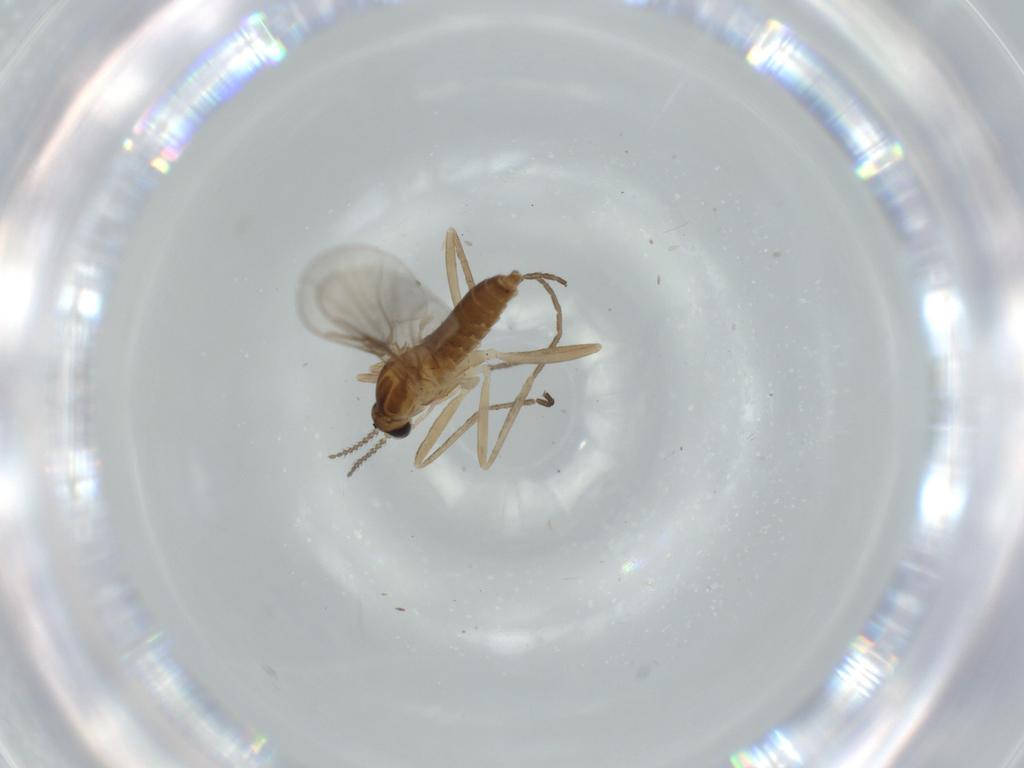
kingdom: Animalia
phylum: Arthropoda
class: Insecta
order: Diptera
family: Cecidomyiidae
